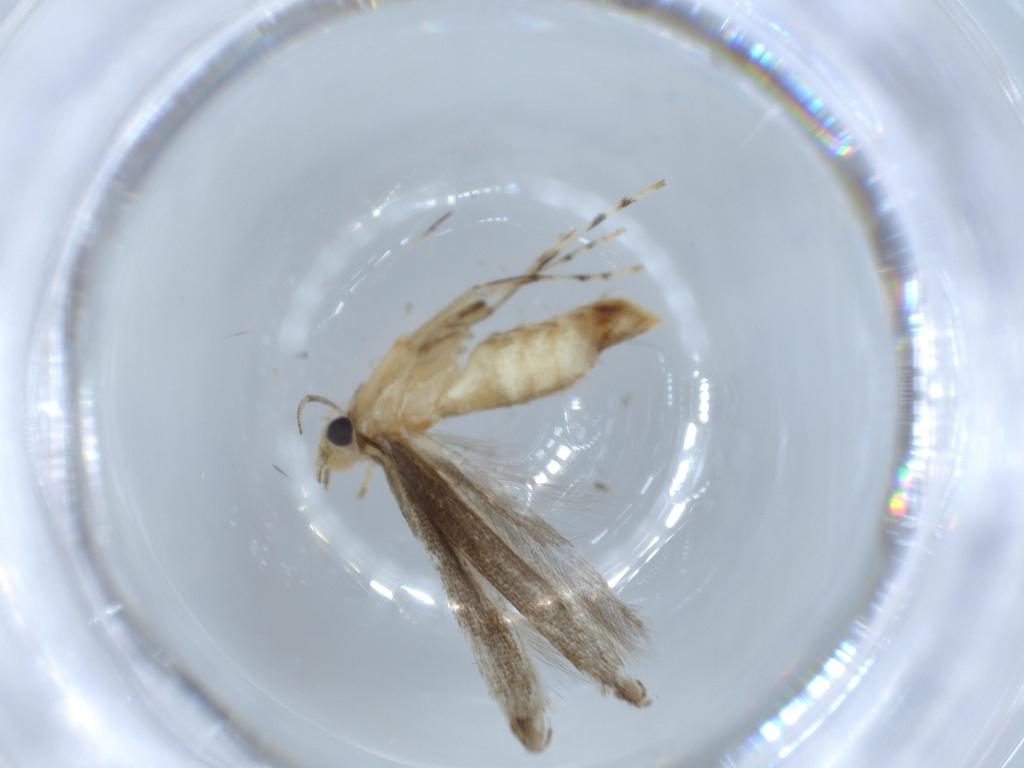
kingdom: Animalia
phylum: Arthropoda
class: Insecta
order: Lepidoptera
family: Gracillariidae
